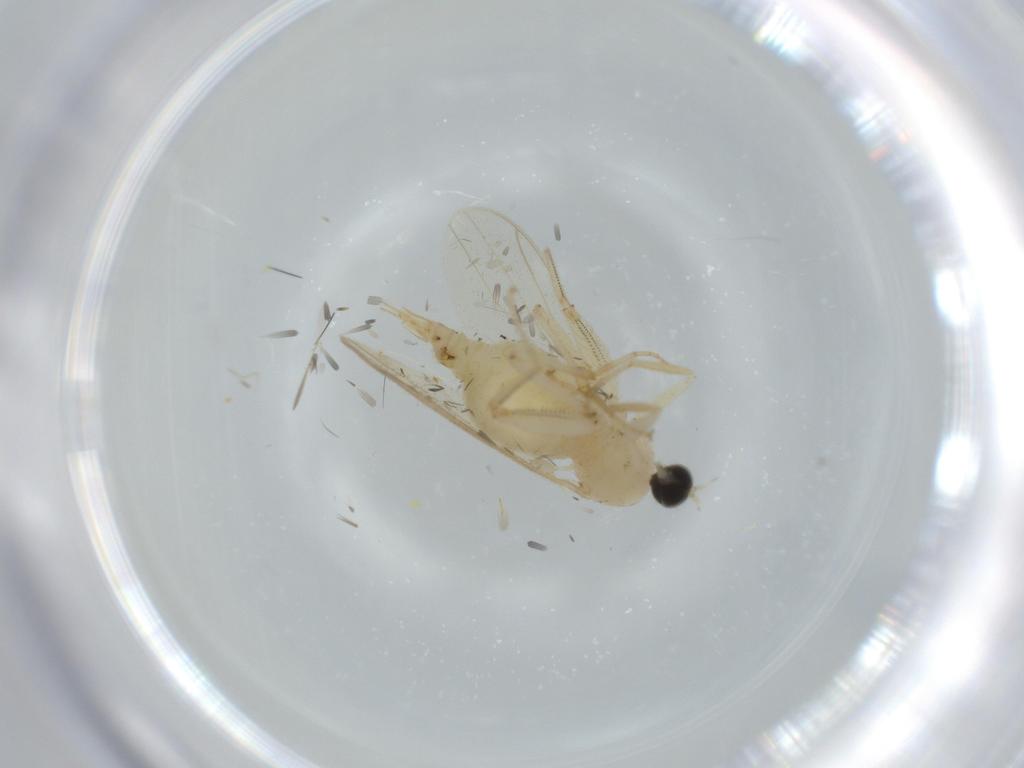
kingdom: Animalia
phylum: Arthropoda
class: Insecta
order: Diptera
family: Hybotidae
